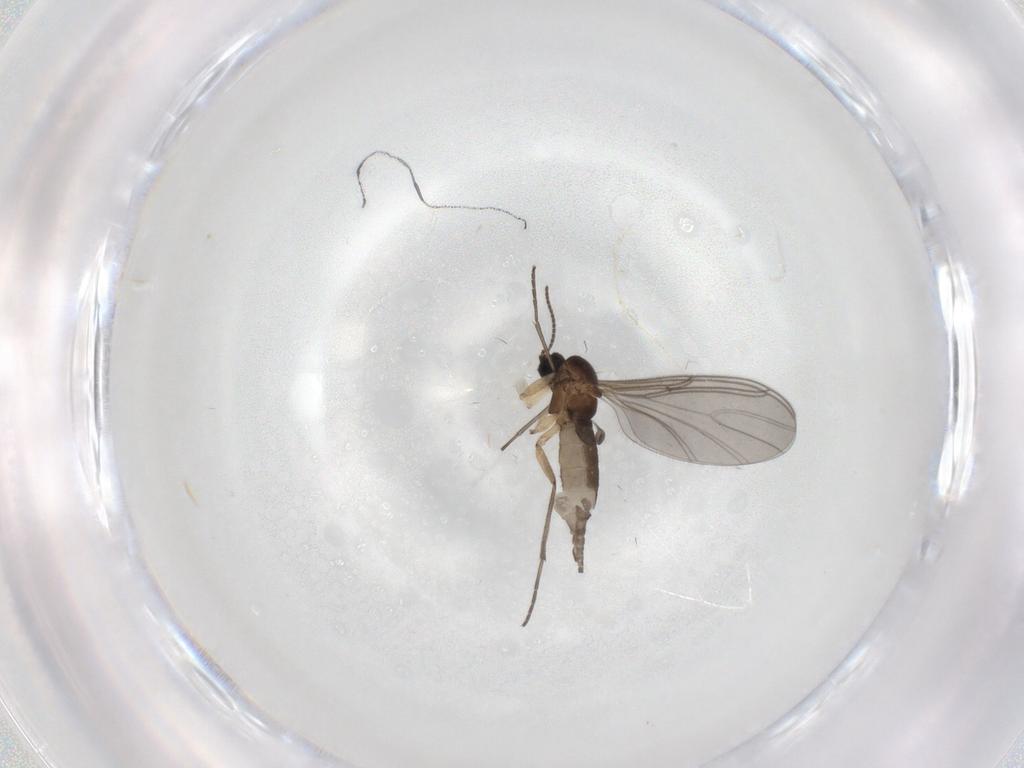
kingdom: Animalia
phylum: Arthropoda
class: Insecta
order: Diptera
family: Sciaridae
